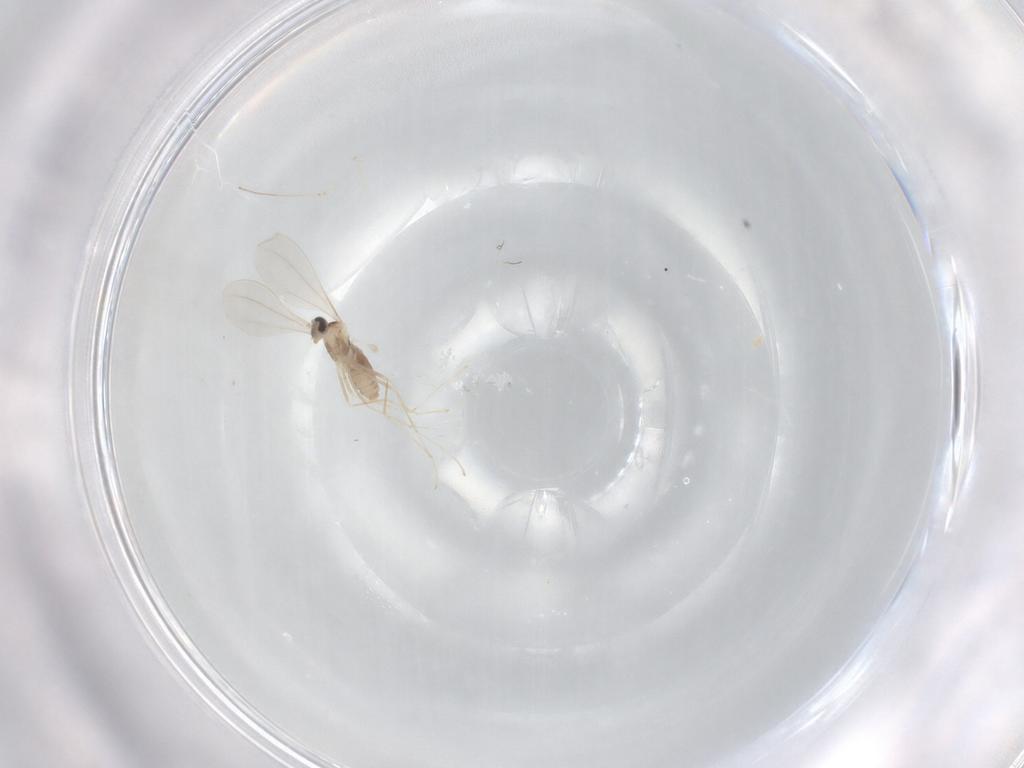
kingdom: Animalia
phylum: Arthropoda
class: Insecta
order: Diptera
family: Cecidomyiidae
